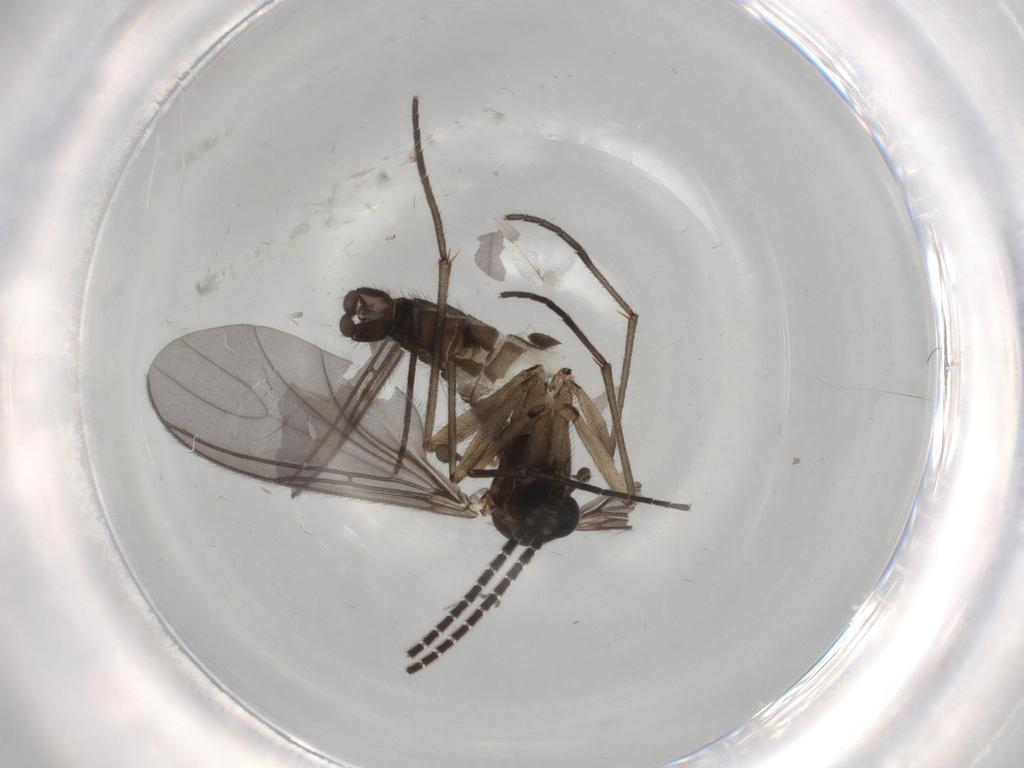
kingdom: Animalia
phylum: Arthropoda
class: Insecta
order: Diptera
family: Sciaridae
